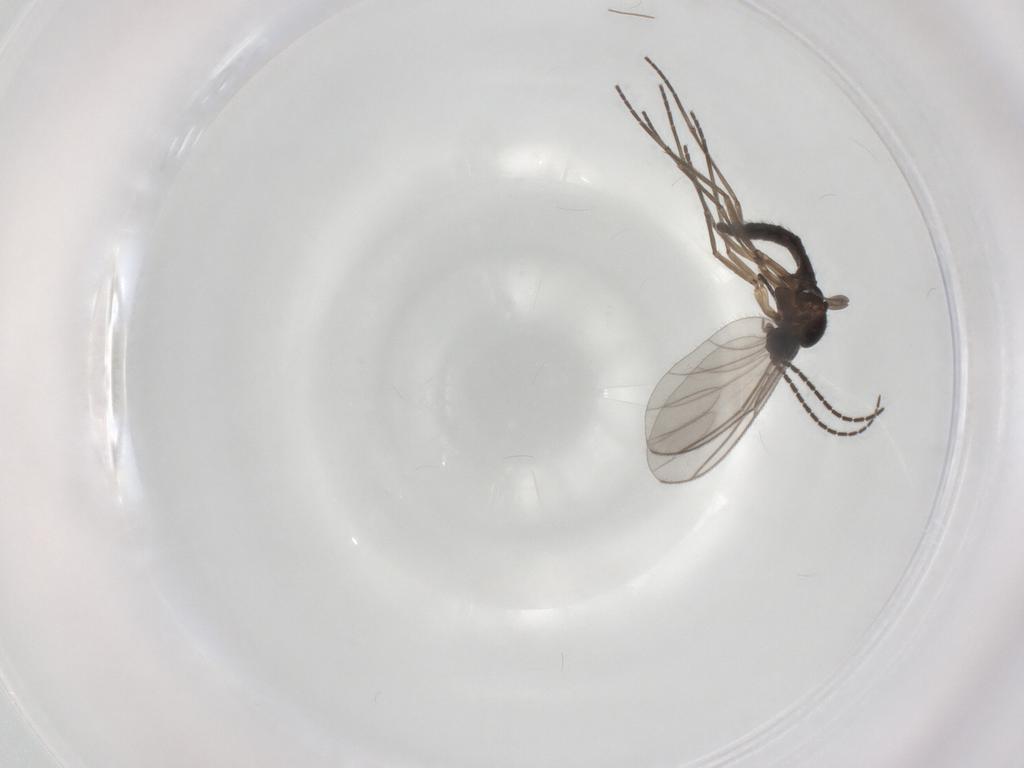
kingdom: Animalia
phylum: Arthropoda
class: Insecta
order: Diptera
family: Sciaridae
